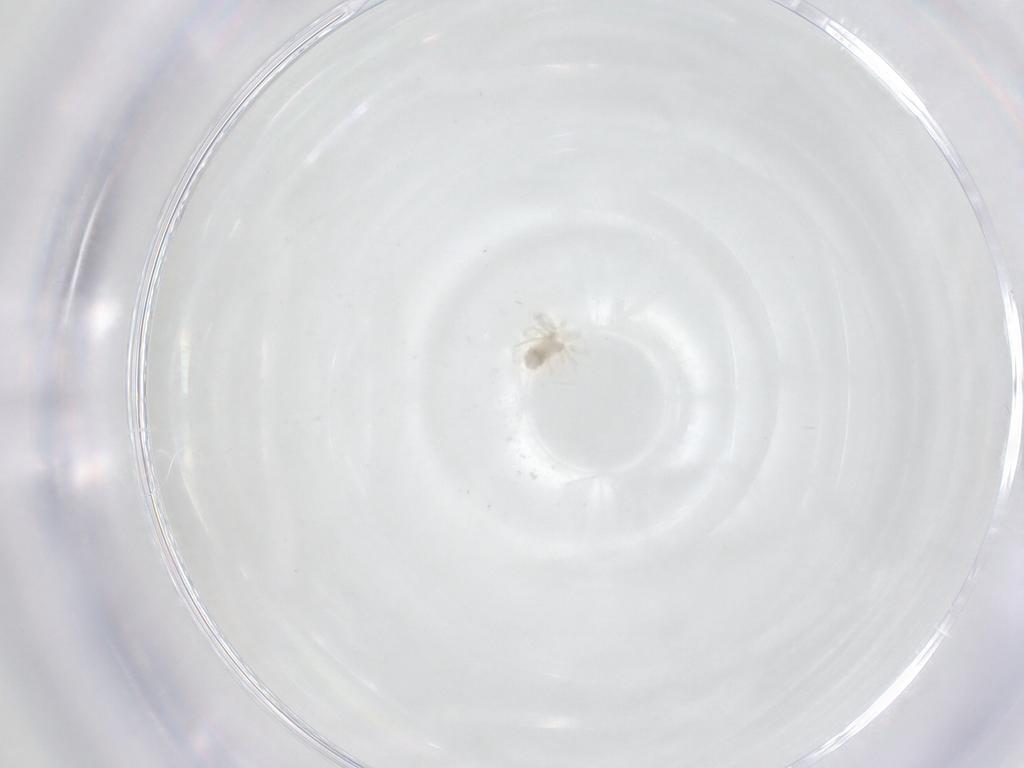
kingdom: Animalia
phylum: Arthropoda
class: Arachnida
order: Trombidiformes
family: Anystidae
